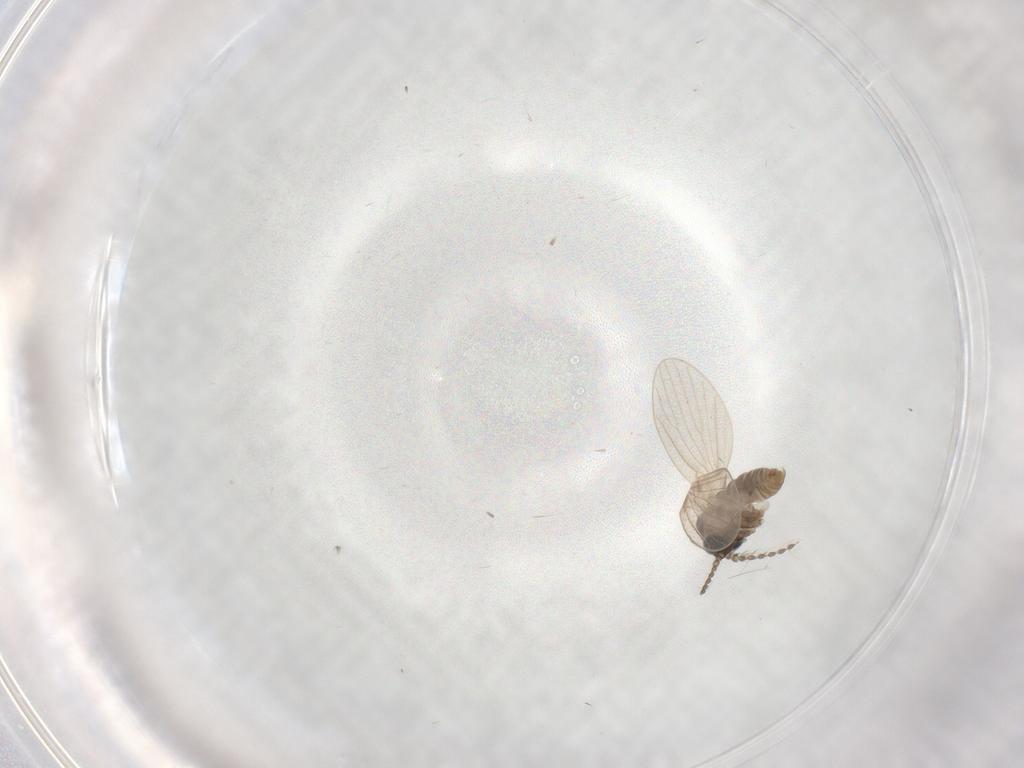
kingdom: Animalia
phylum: Arthropoda
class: Insecta
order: Diptera
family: Psychodidae
